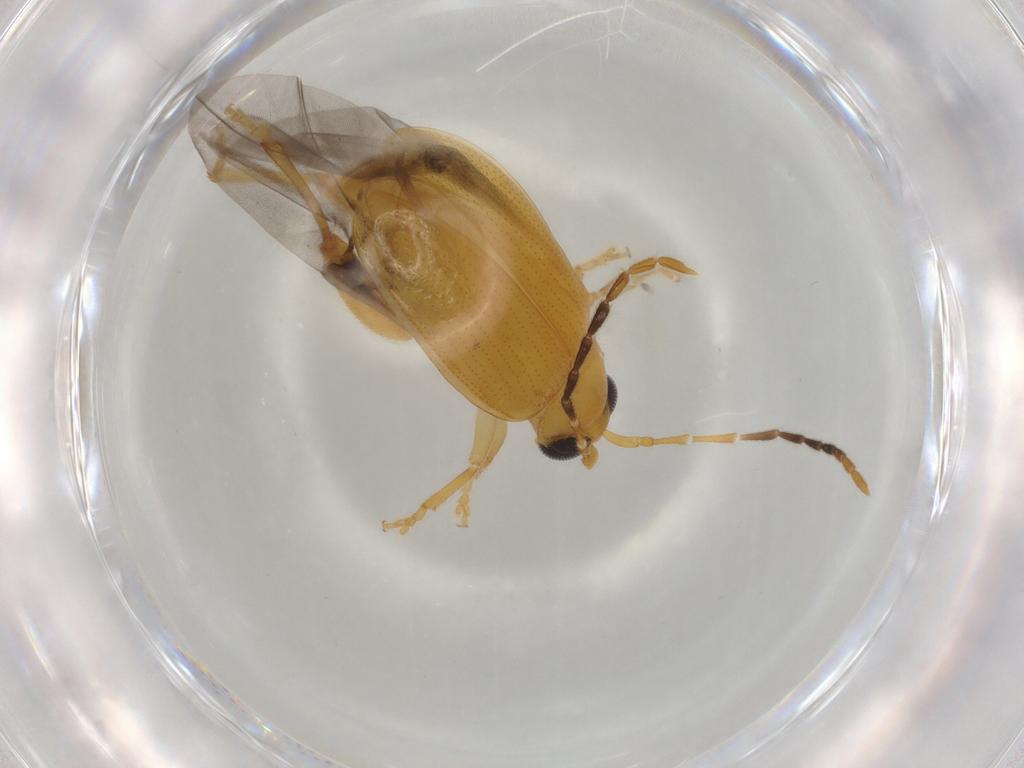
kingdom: Animalia
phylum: Arthropoda
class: Insecta
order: Coleoptera
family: Chrysomelidae
